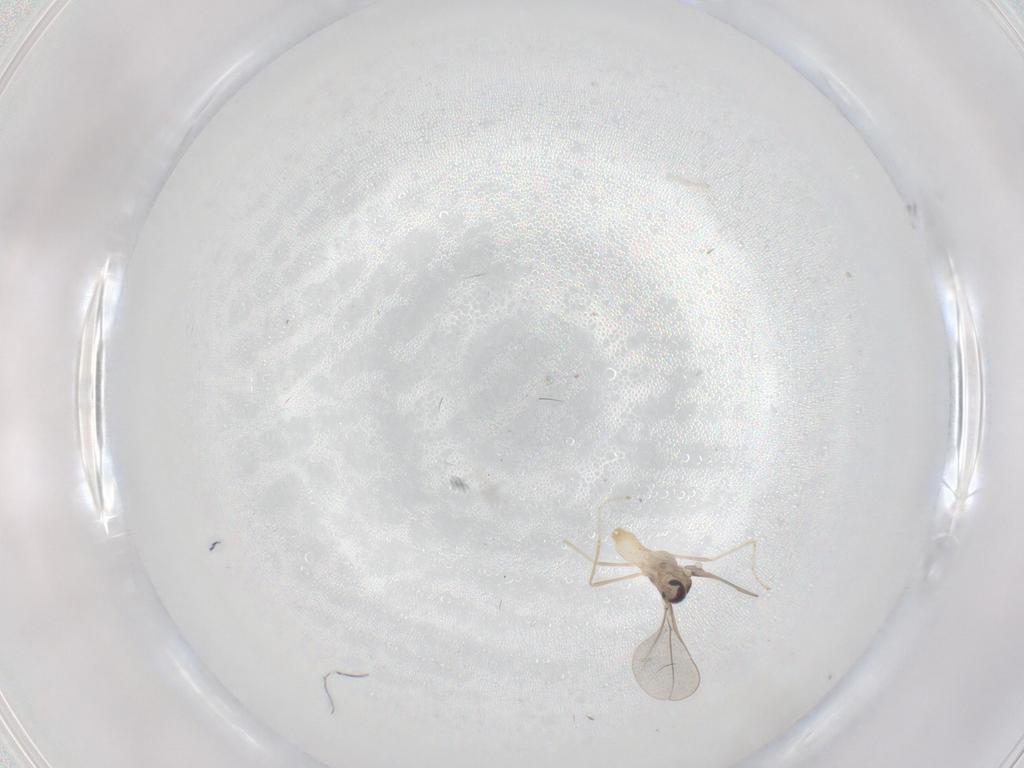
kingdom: Animalia
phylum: Arthropoda
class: Insecta
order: Diptera
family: Cecidomyiidae
